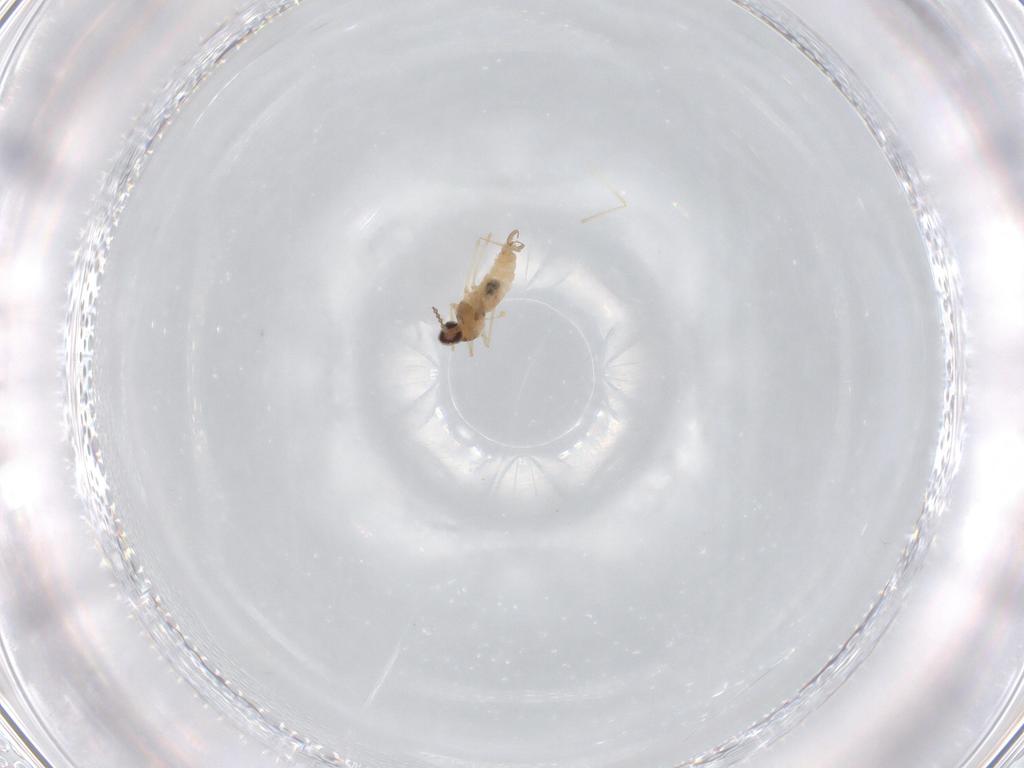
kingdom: Animalia
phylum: Arthropoda
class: Insecta
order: Diptera
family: Cecidomyiidae
